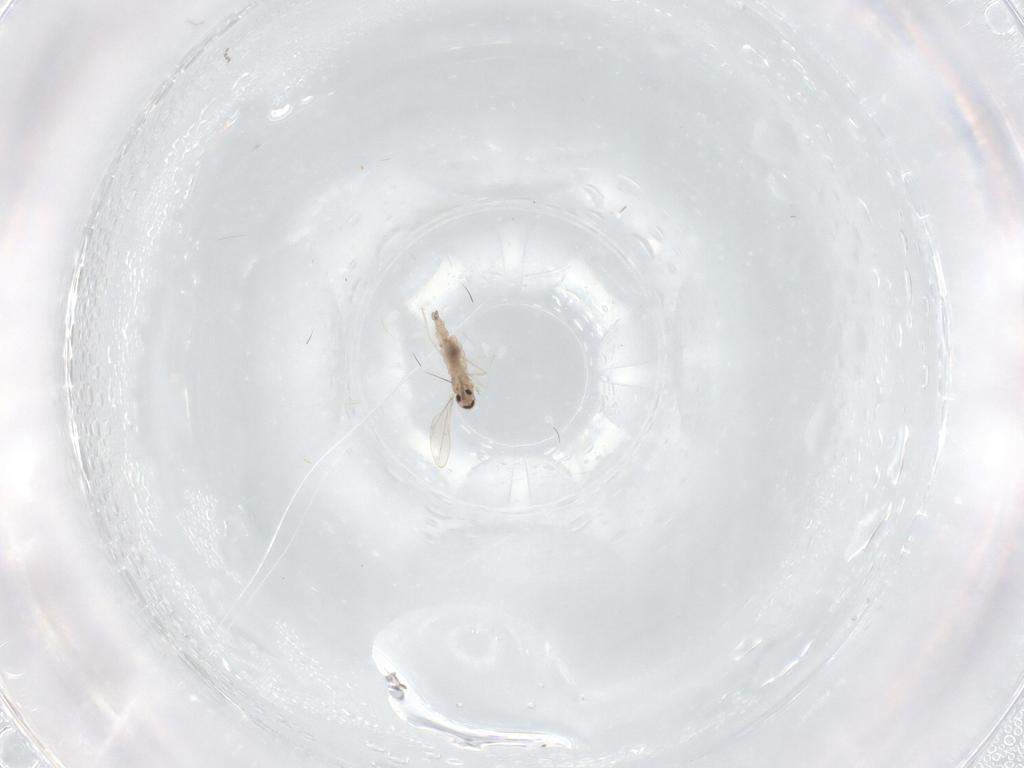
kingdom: Animalia
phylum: Arthropoda
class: Insecta
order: Diptera
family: Cecidomyiidae
